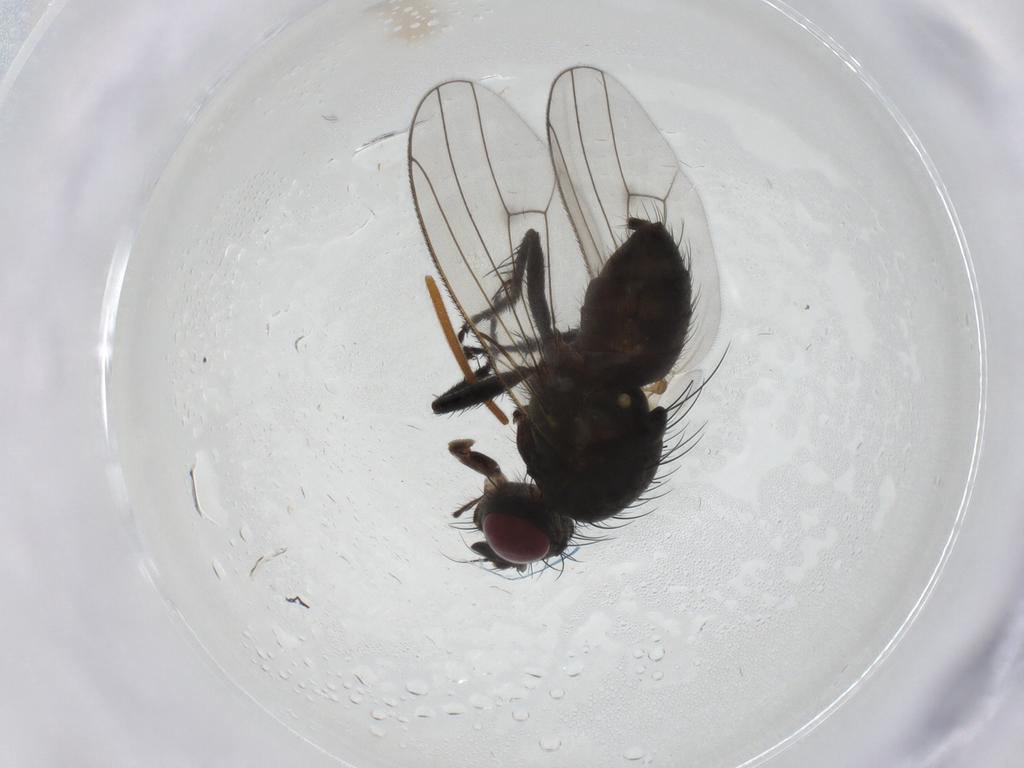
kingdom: Animalia
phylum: Arthropoda
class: Insecta
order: Diptera
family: Muscidae
